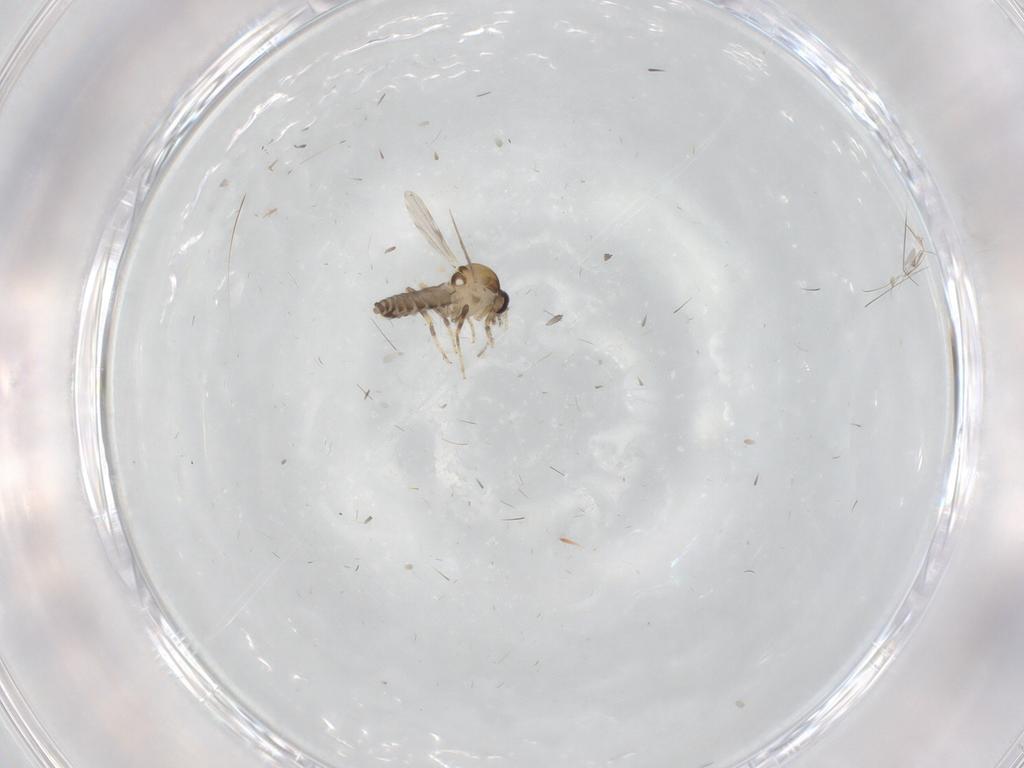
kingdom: Animalia
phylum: Arthropoda
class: Insecta
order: Diptera
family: Ceratopogonidae
